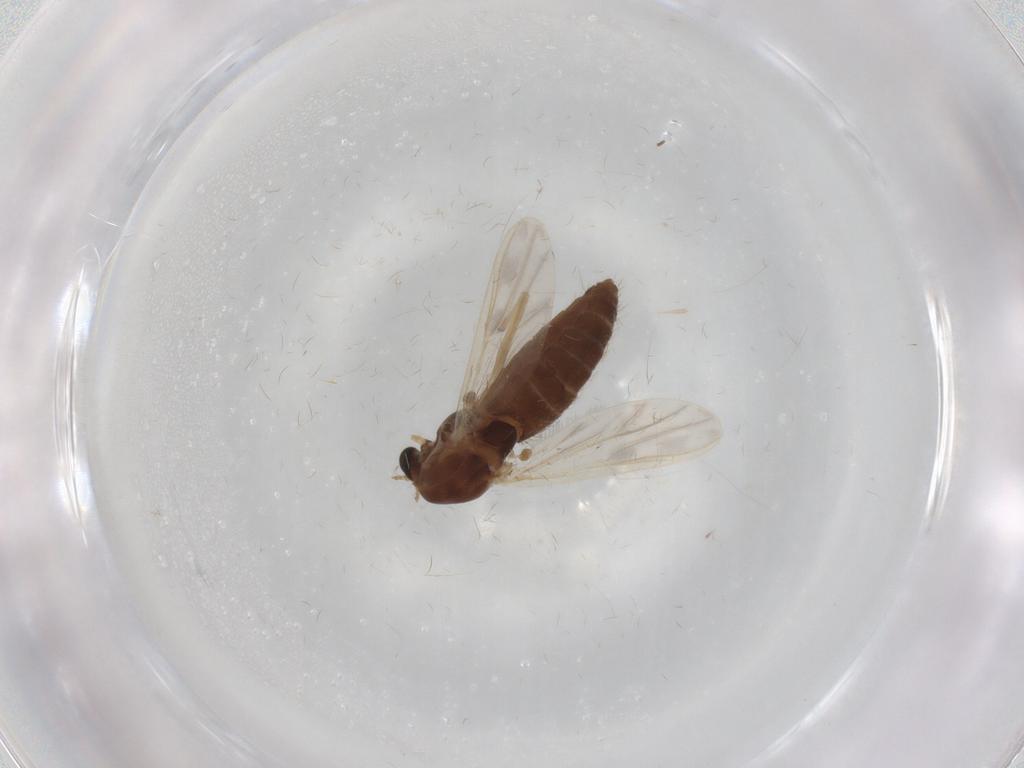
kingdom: Animalia
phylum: Arthropoda
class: Insecta
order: Diptera
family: Chironomidae
